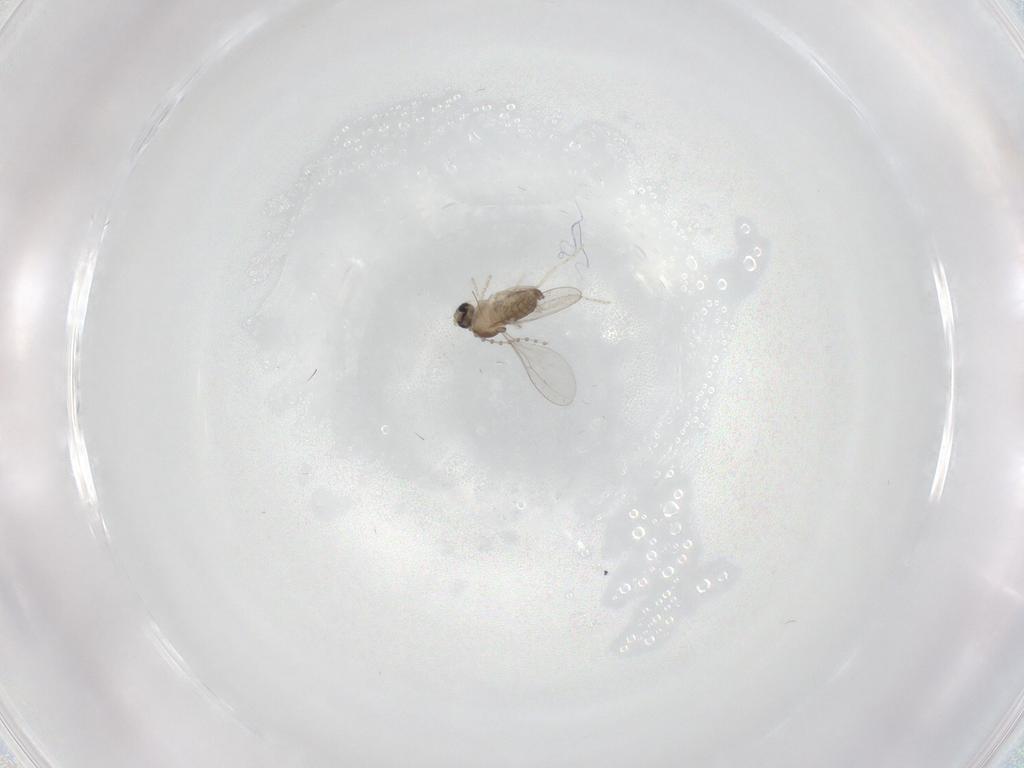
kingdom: Animalia
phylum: Arthropoda
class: Insecta
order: Diptera
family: Cecidomyiidae
